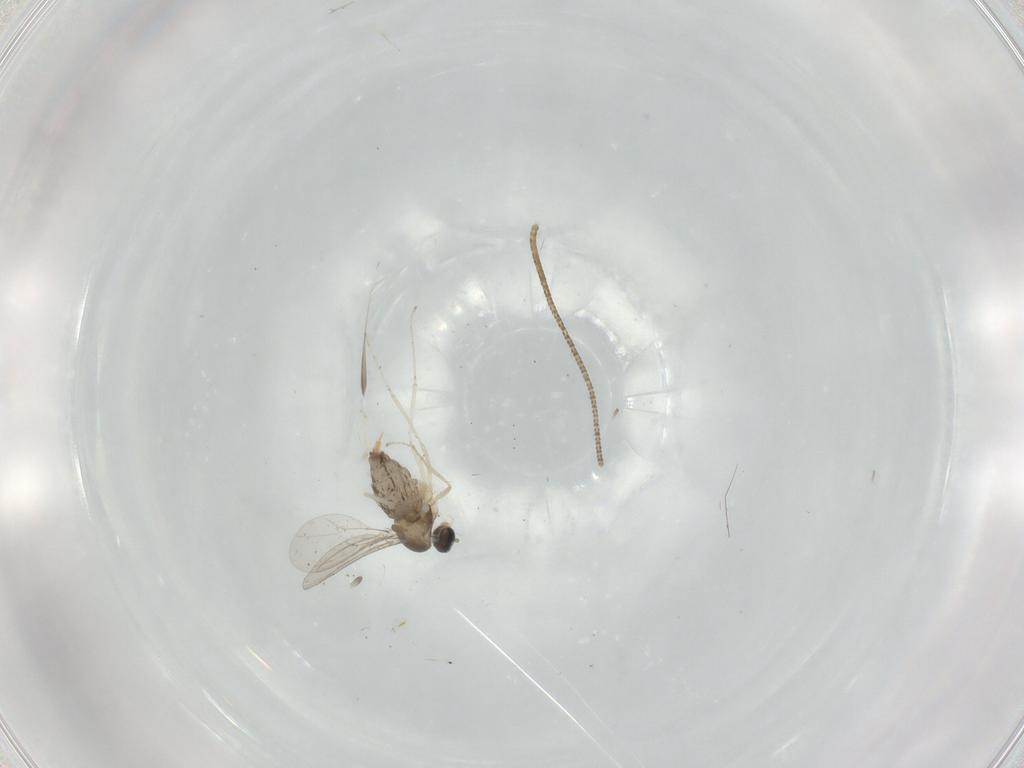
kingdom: Animalia
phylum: Arthropoda
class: Insecta
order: Diptera
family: Cecidomyiidae
